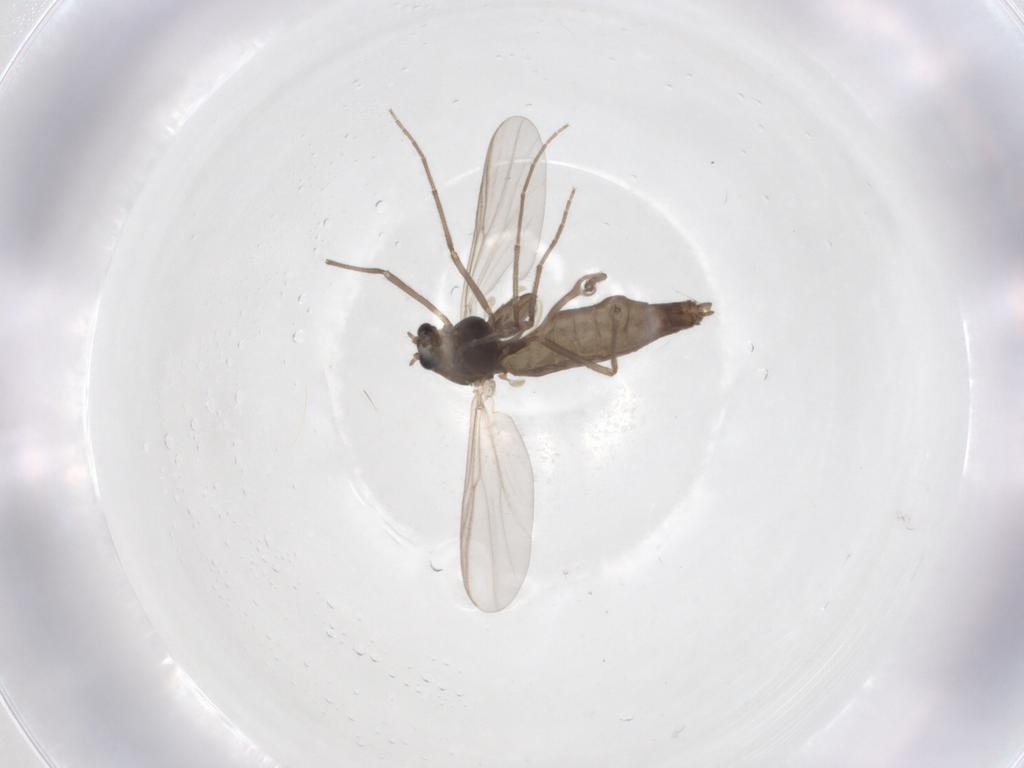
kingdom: Animalia
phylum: Arthropoda
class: Insecta
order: Diptera
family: Chironomidae
